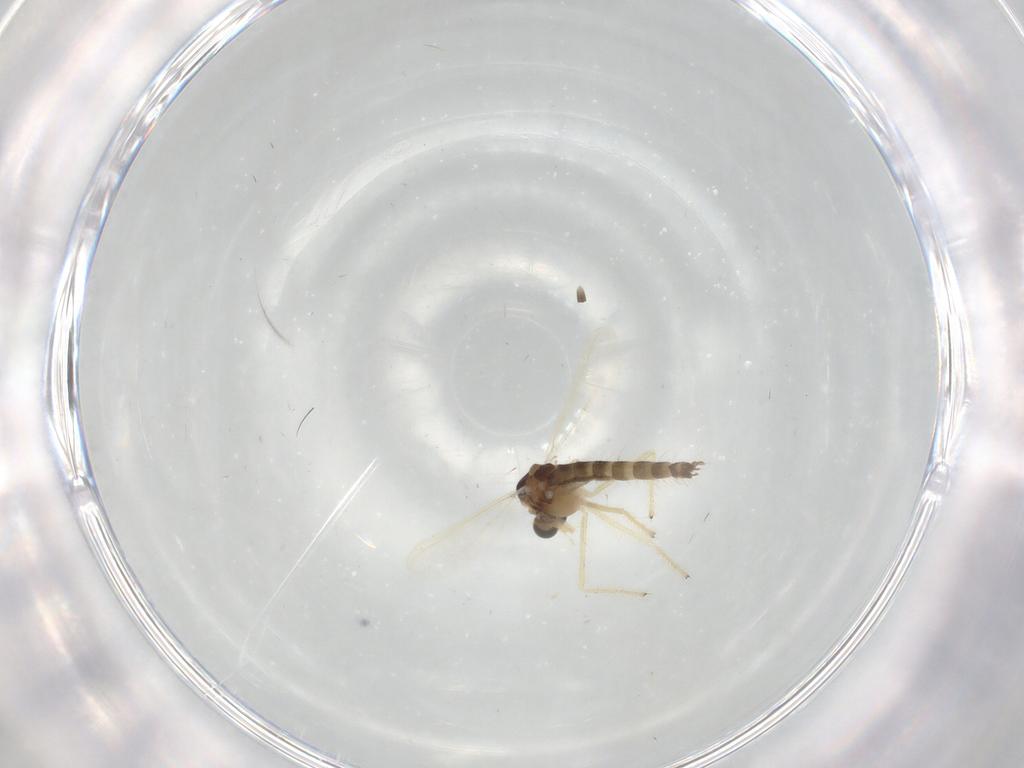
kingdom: Animalia
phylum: Arthropoda
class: Insecta
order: Diptera
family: Chironomidae
